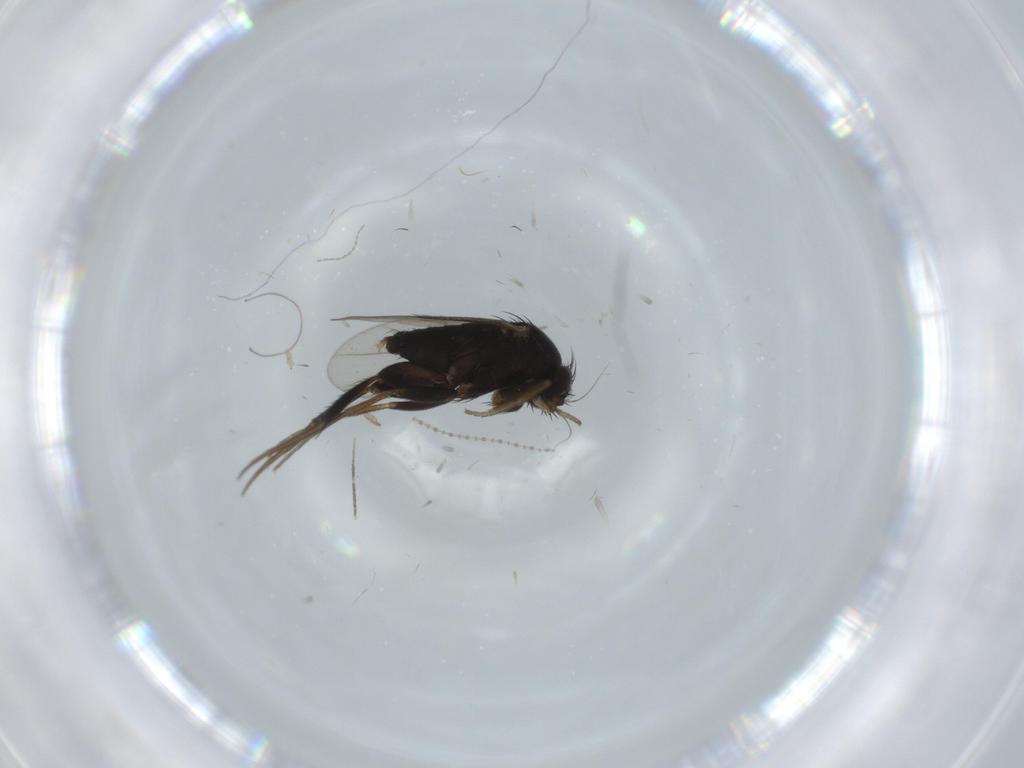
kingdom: Animalia
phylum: Arthropoda
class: Insecta
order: Diptera
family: Phoridae
